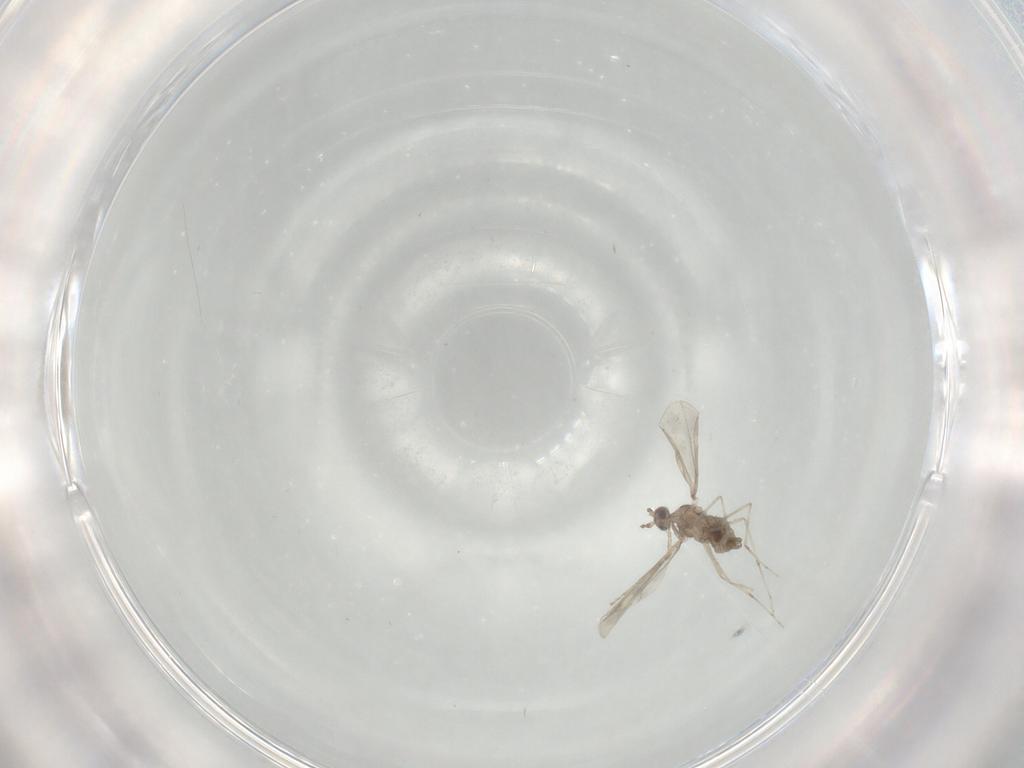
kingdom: Animalia
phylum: Arthropoda
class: Insecta
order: Diptera
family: Cecidomyiidae
